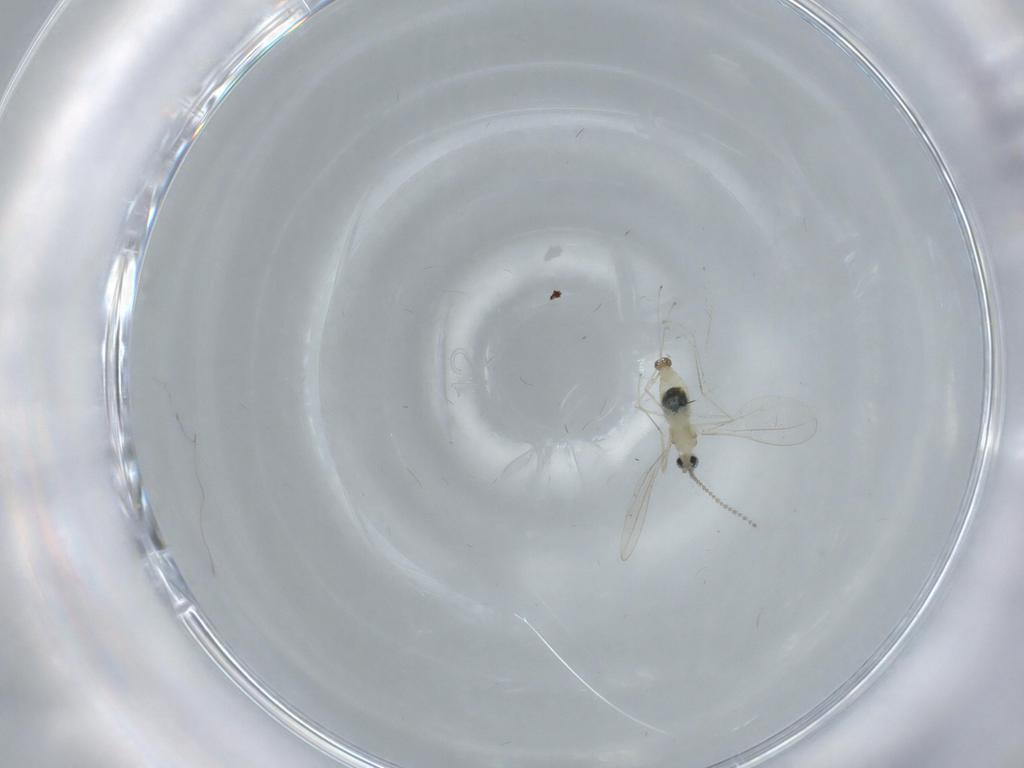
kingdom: Animalia
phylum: Arthropoda
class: Insecta
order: Diptera
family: Cecidomyiidae
